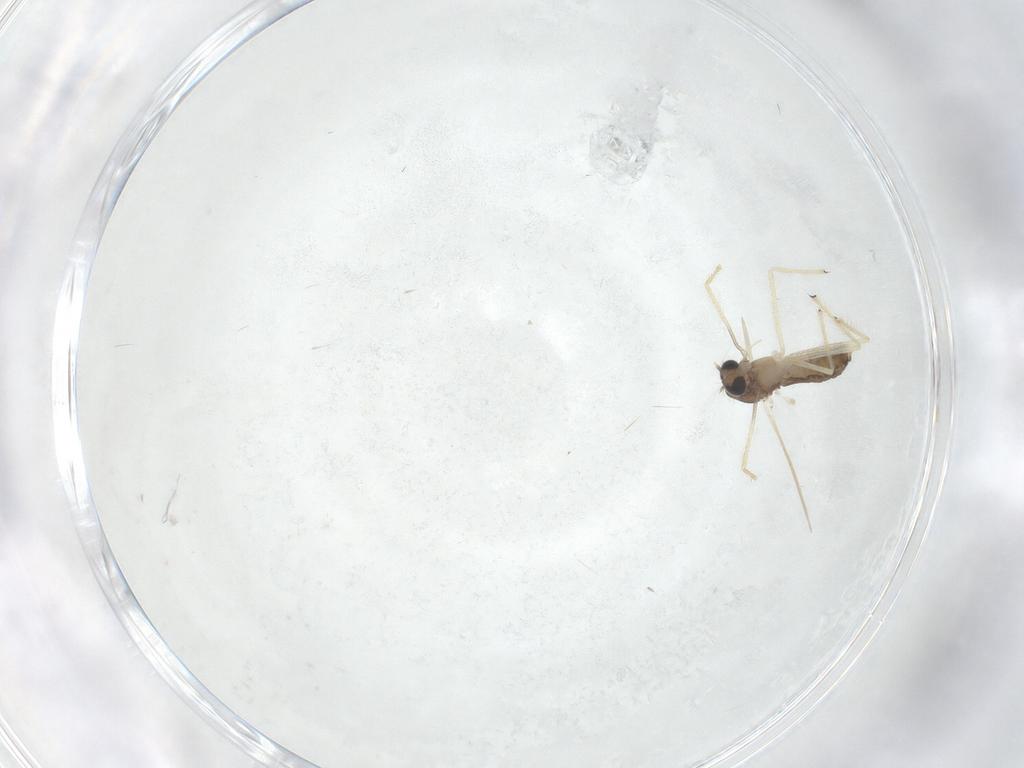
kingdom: Animalia
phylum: Arthropoda
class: Insecta
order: Diptera
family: Chironomidae
